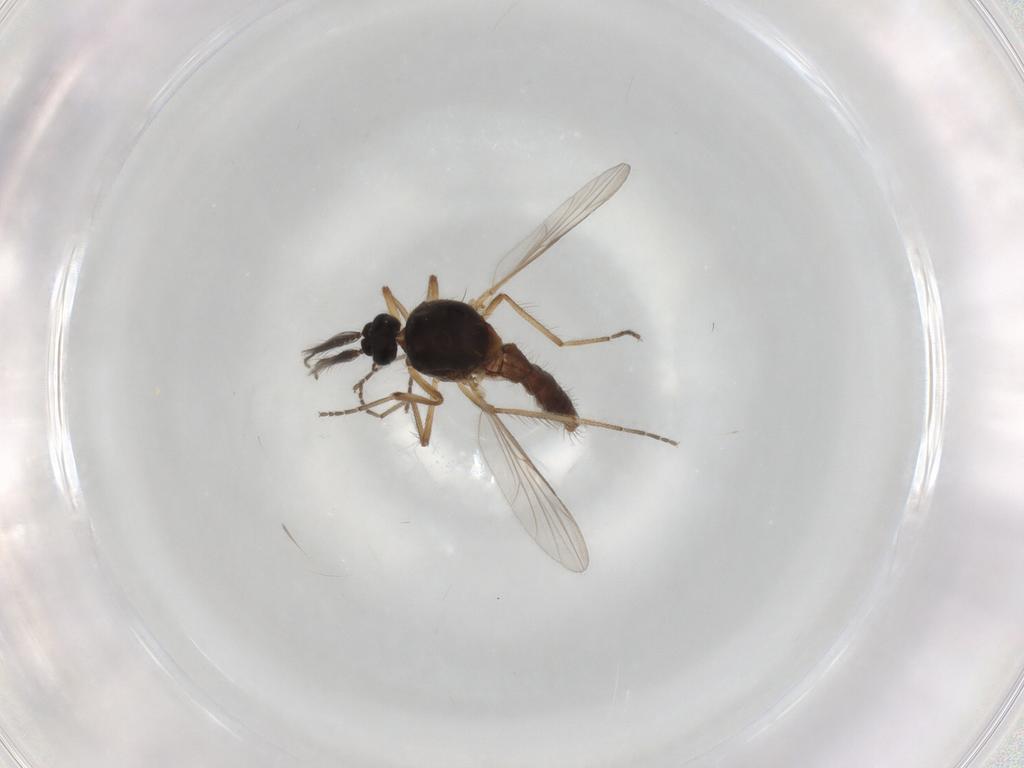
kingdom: Animalia
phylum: Arthropoda
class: Insecta
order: Diptera
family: Ceratopogonidae
